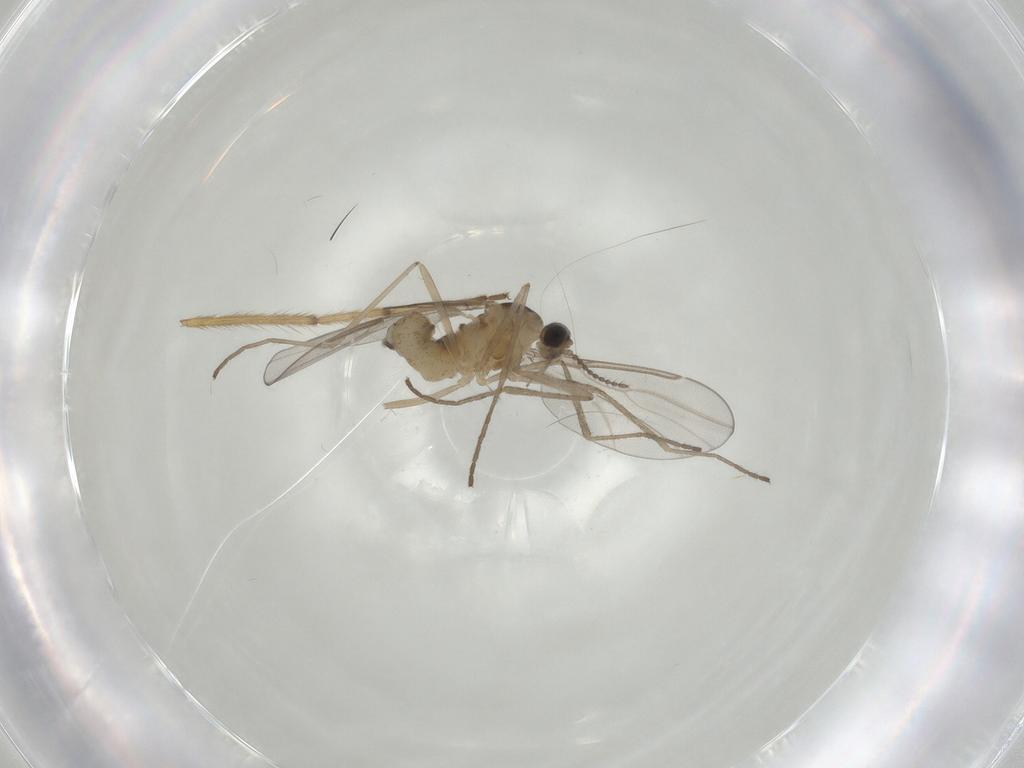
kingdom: Animalia
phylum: Arthropoda
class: Insecta
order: Diptera
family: Cecidomyiidae
